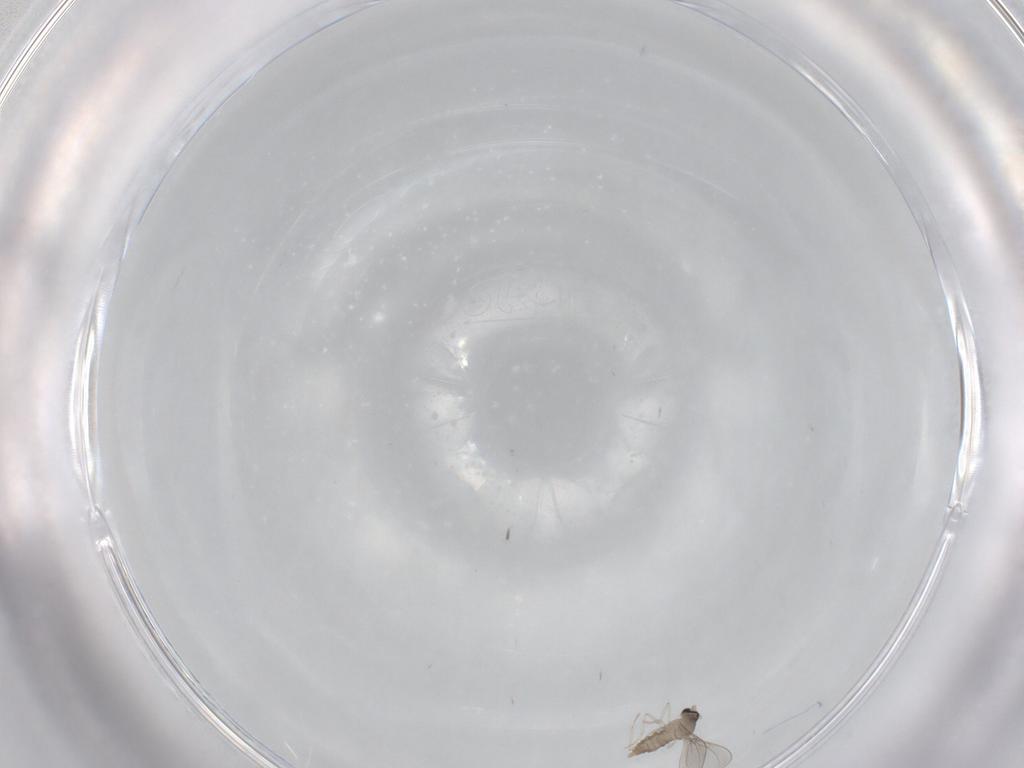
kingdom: Animalia
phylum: Arthropoda
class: Insecta
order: Diptera
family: Cecidomyiidae
